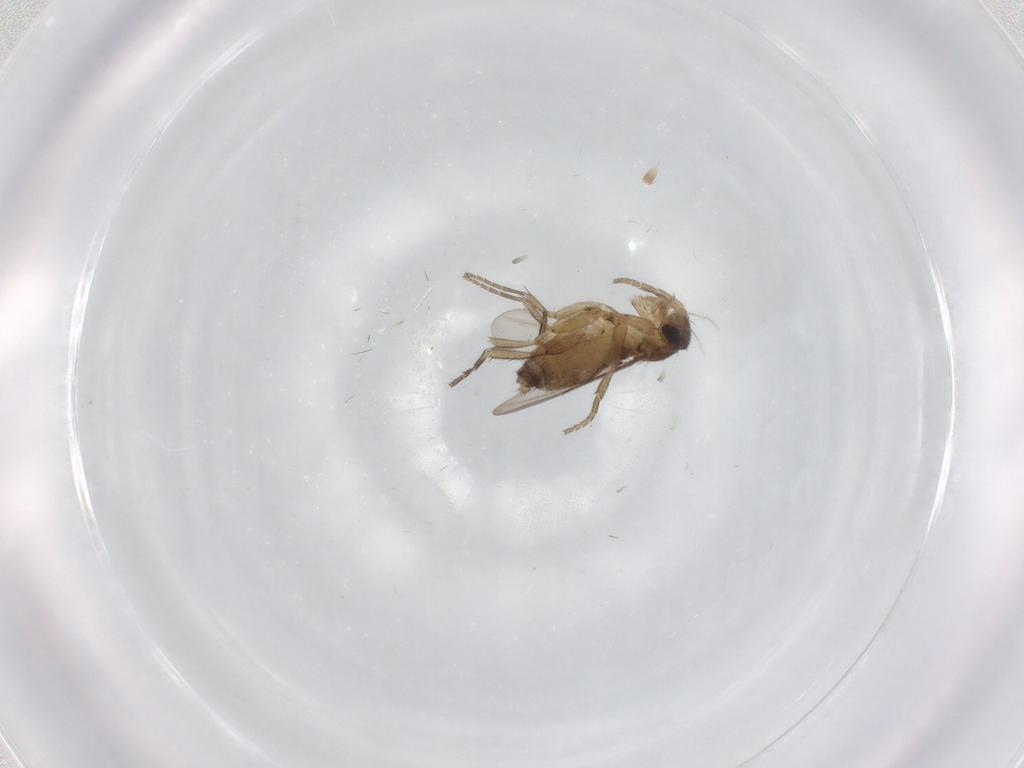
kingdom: Animalia
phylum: Arthropoda
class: Insecta
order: Diptera
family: Phoridae
